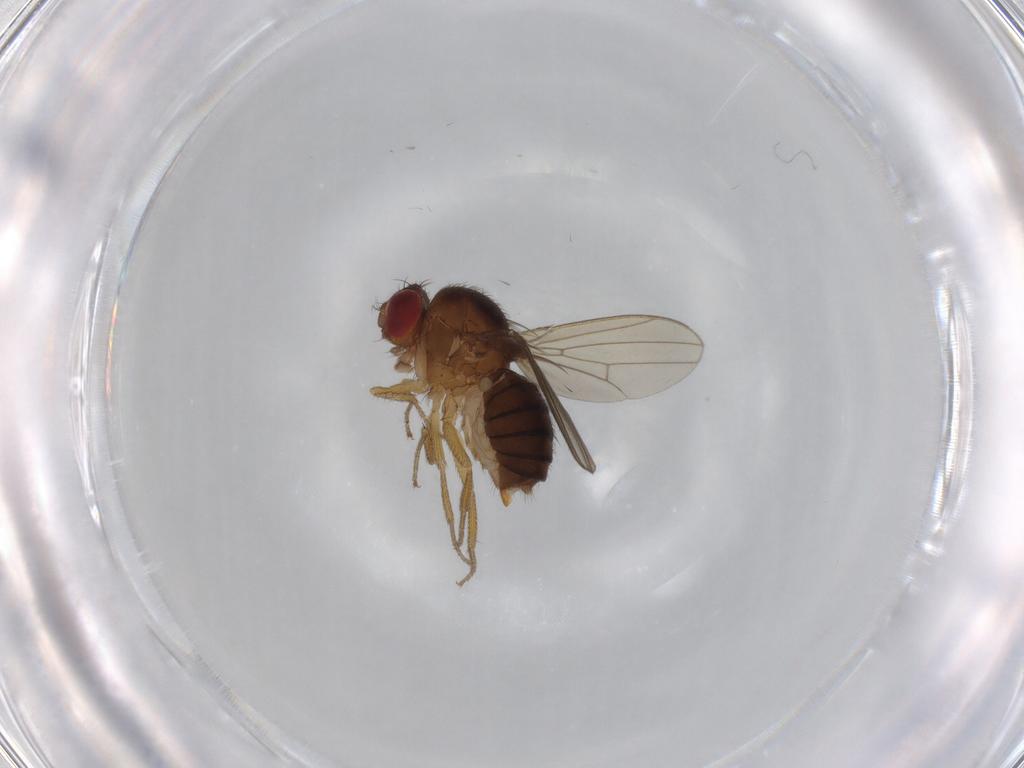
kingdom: Animalia
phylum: Arthropoda
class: Insecta
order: Diptera
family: Drosophilidae
